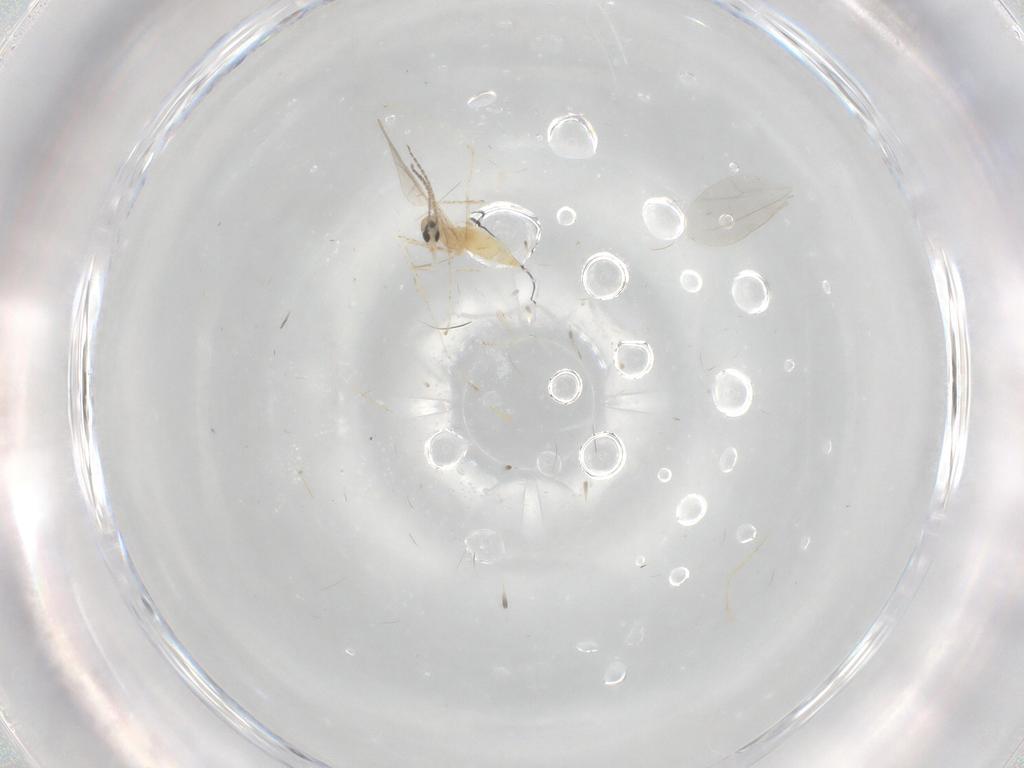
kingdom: Animalia
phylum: Arthropoda
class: Insecta
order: Diptera
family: Cecidomyiidae
